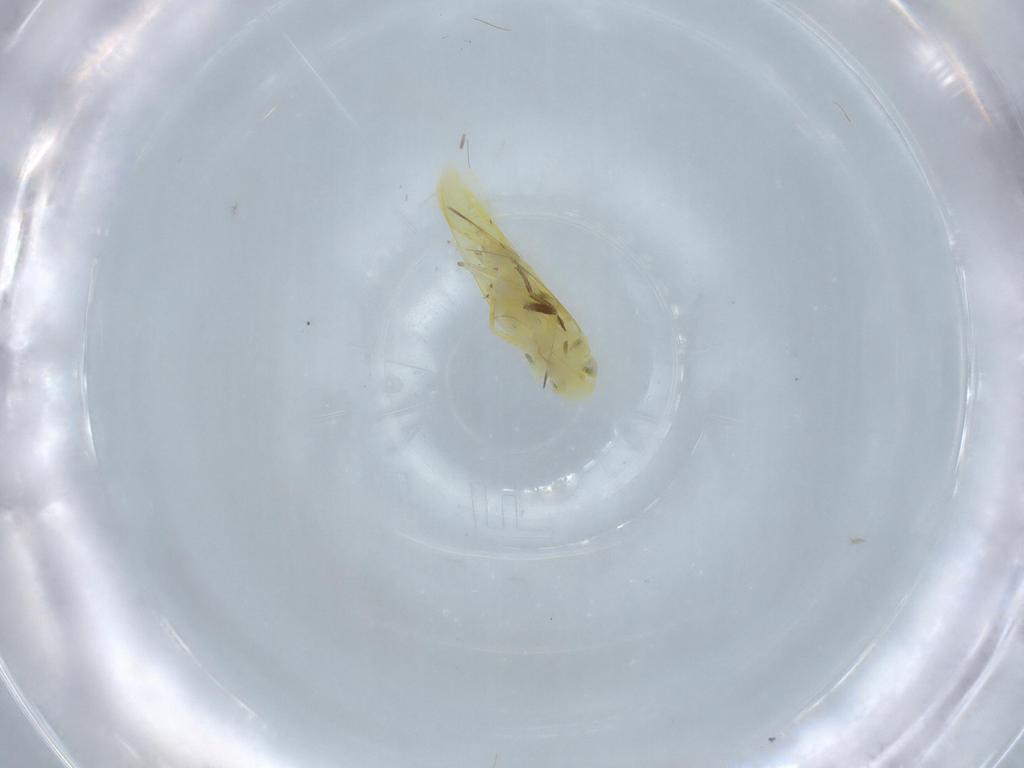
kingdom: Animalia
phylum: Arthropoda
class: Insecta
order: Hemiptera
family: Cicadellidae
